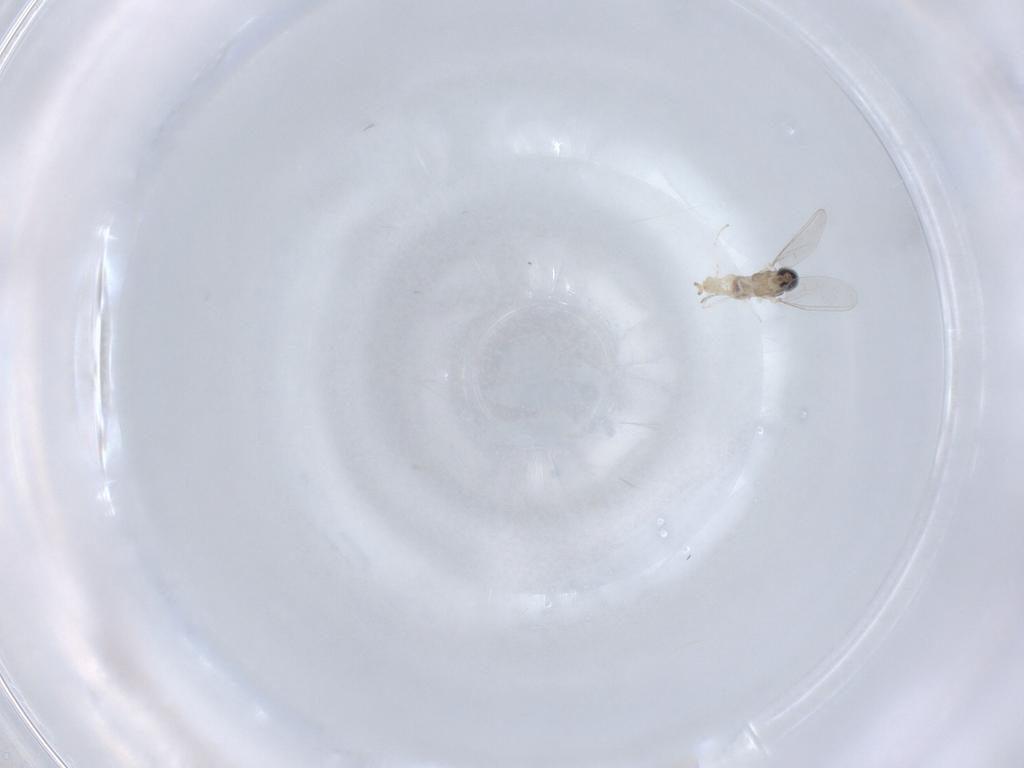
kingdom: Animalia
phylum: Arthropoda
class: Insecta
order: Diptera
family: Cecidomyiidae
